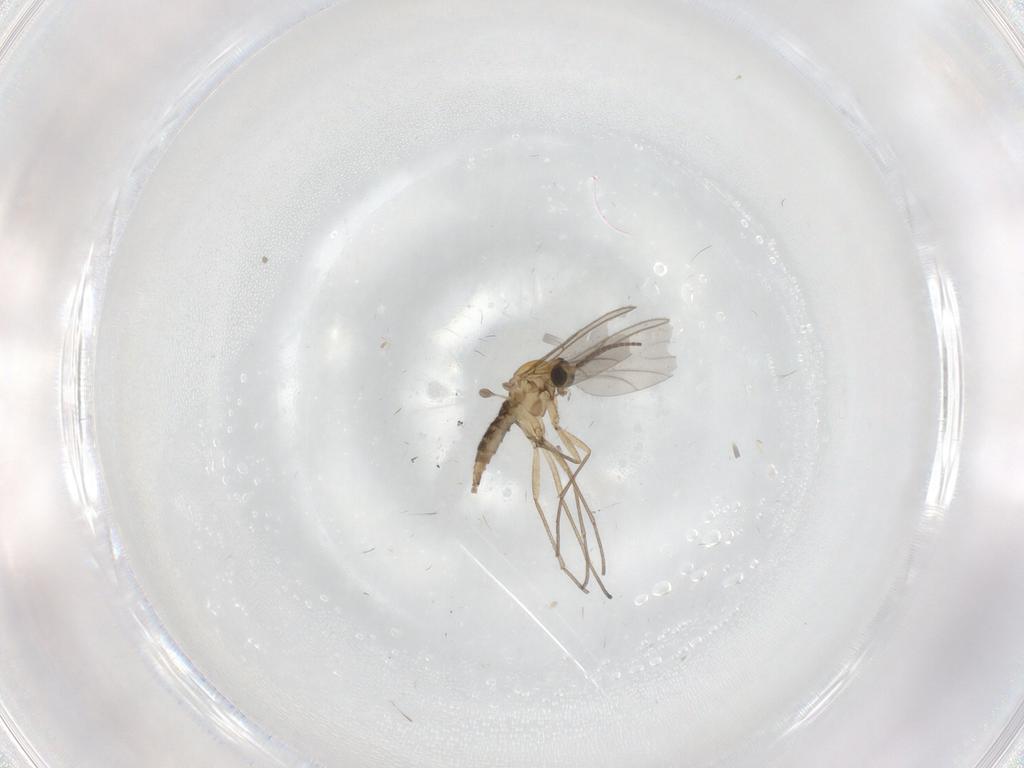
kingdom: Animalia
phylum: Arthropoda
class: Insecta
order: Diptera
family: Sciaridae
